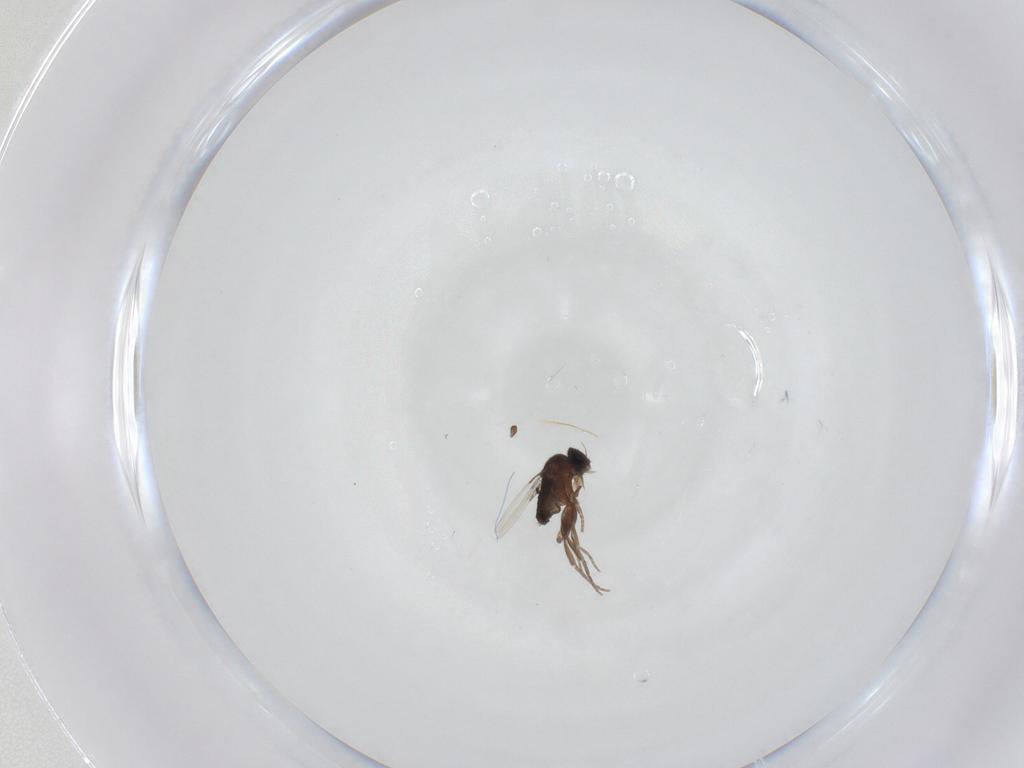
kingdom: Animalia
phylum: Arthropoda
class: Insecta
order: Diptera
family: Phoridae
